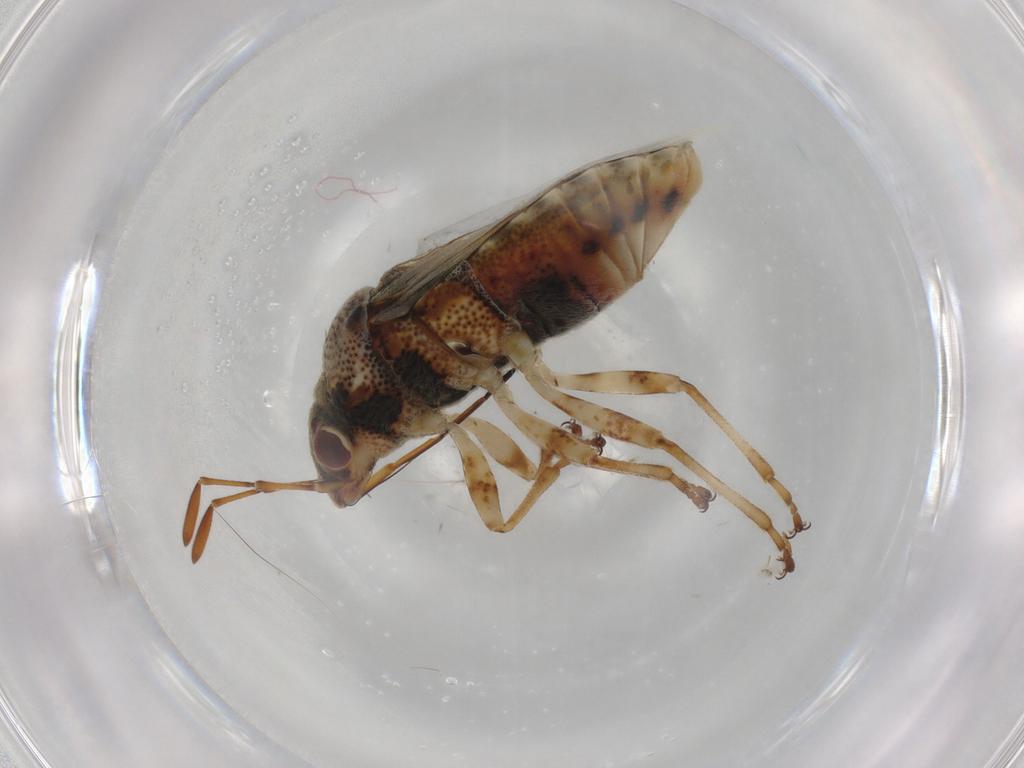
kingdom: Animalia
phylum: Arthropoda
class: Insecta
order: Hemiptera
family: Lygaeidae
